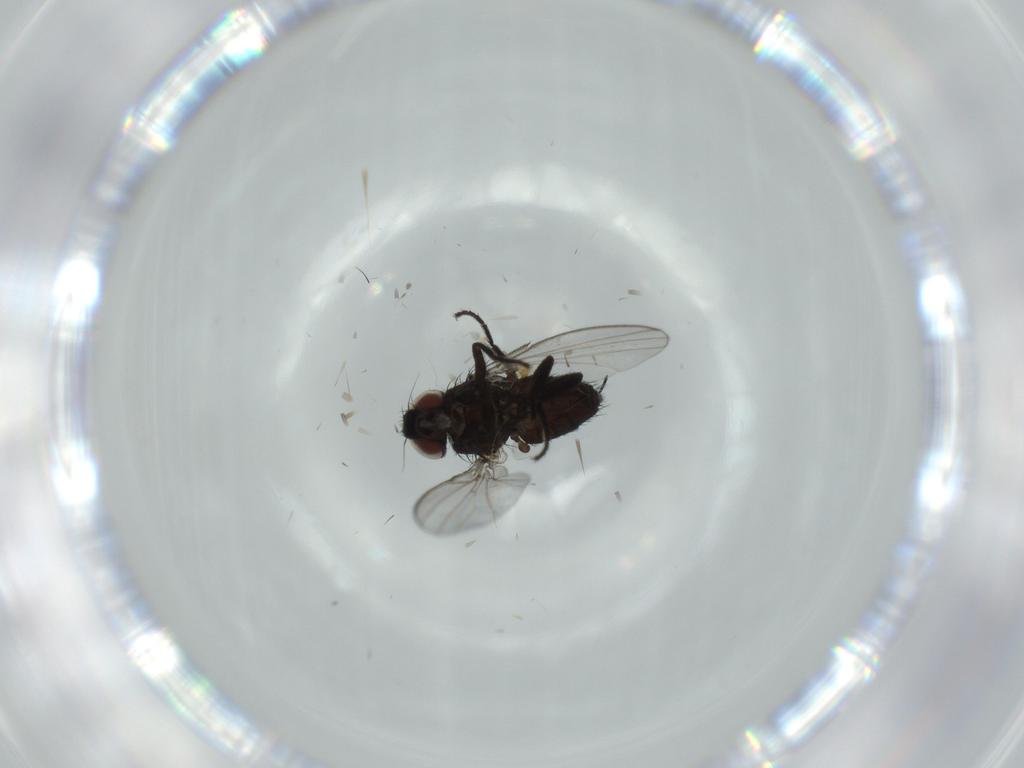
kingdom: Animalia
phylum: Arthropoda
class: Insecta
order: Diptera
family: Milichiidae
